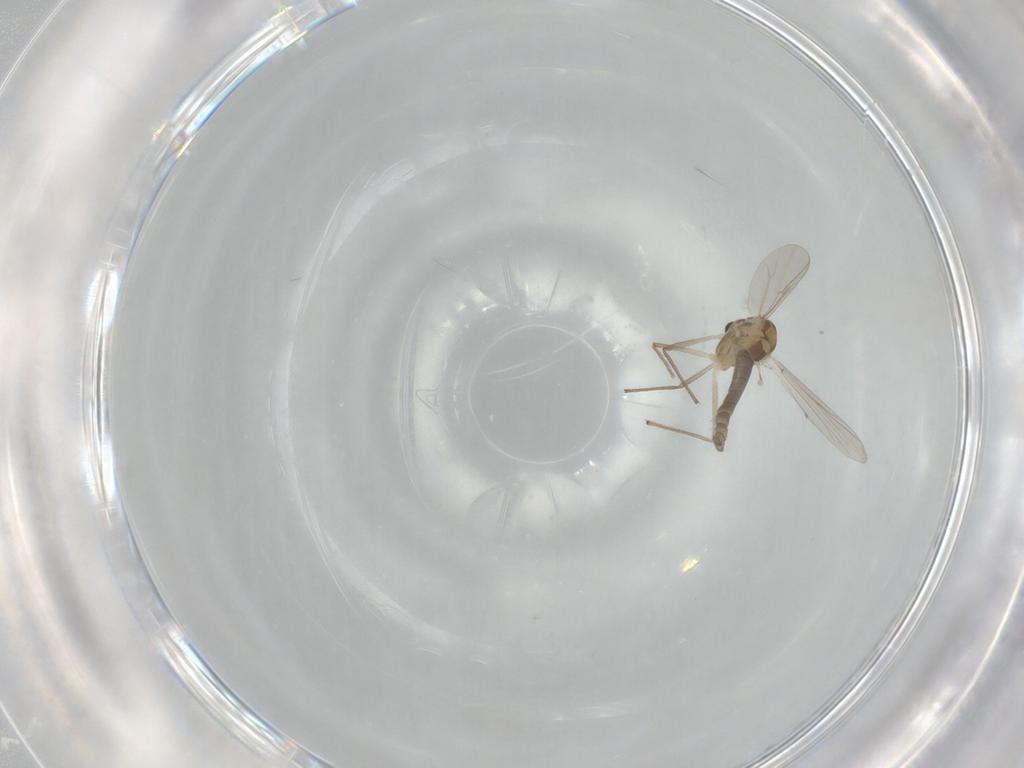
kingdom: Animalia
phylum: Arthropoda
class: Insecta
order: Diptera
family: Chironomidae
